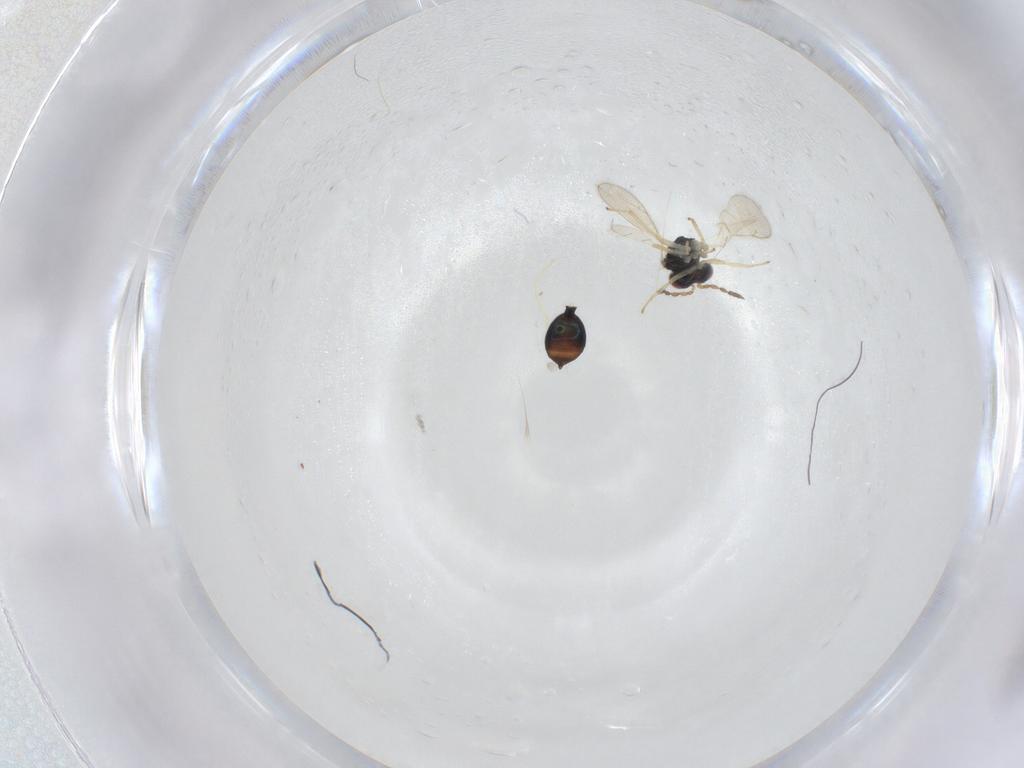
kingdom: Animalia
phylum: Arthropoda
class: Insecta
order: Hymenoptera
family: Eulophidae
